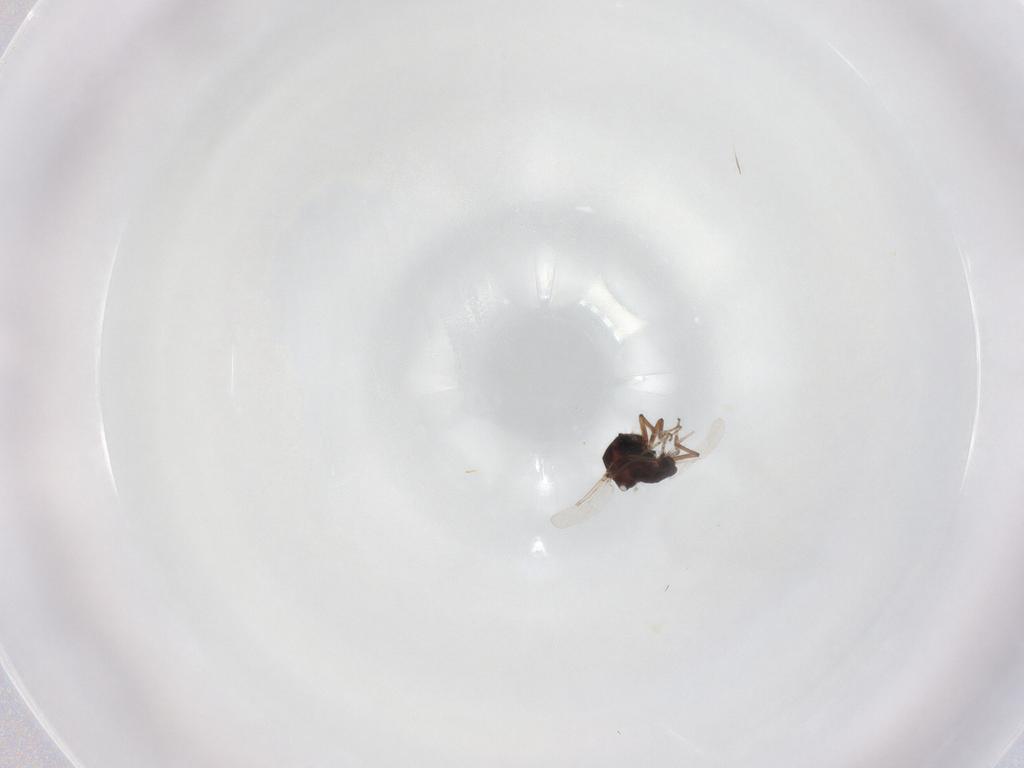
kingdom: Animalia
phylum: Arthropoda
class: Insecta
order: Diptera
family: Ceratopogonidae
